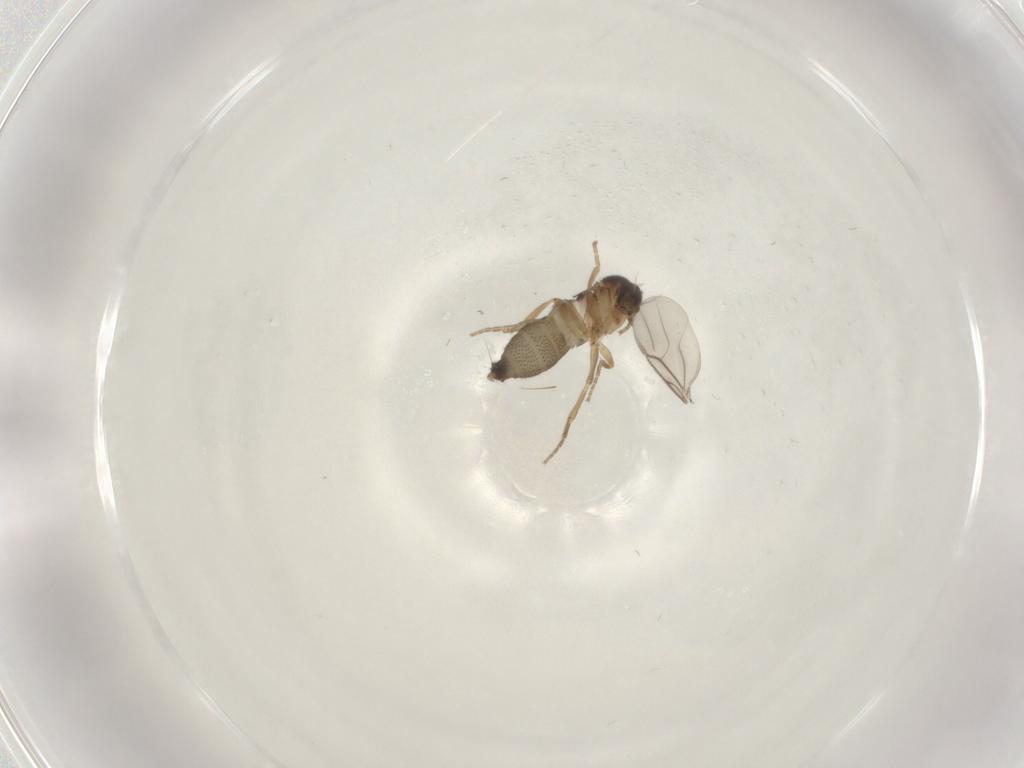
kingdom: Animalia
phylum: Arthropoda
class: Insecta
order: Diptera
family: Phoridae
